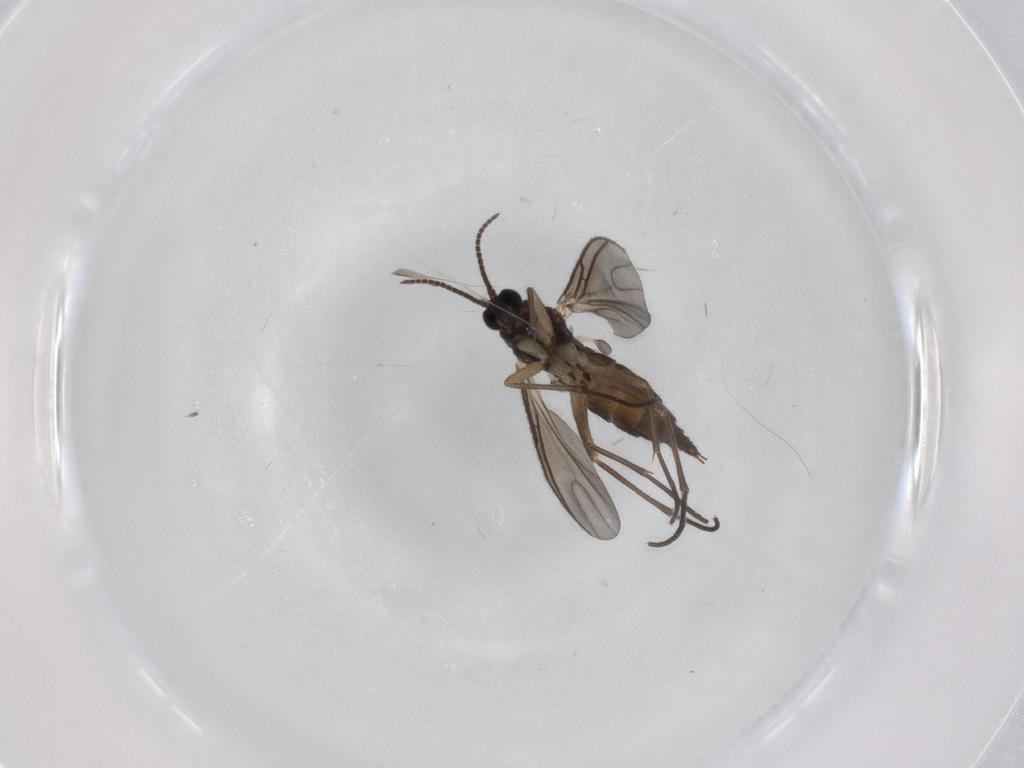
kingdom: Animalia
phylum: Arthropoda
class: Insecta
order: Diptera
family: Sciaridae
